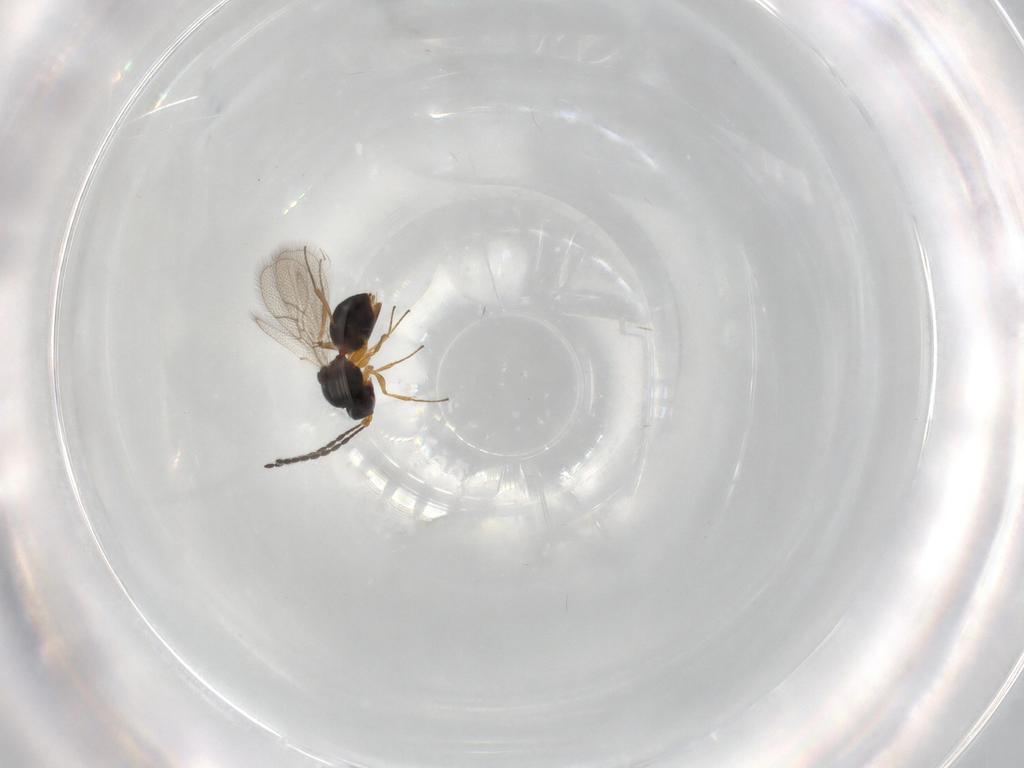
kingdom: Animalia
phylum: Arthropoda
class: Insecta
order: Hymenoptera
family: Figitidae
